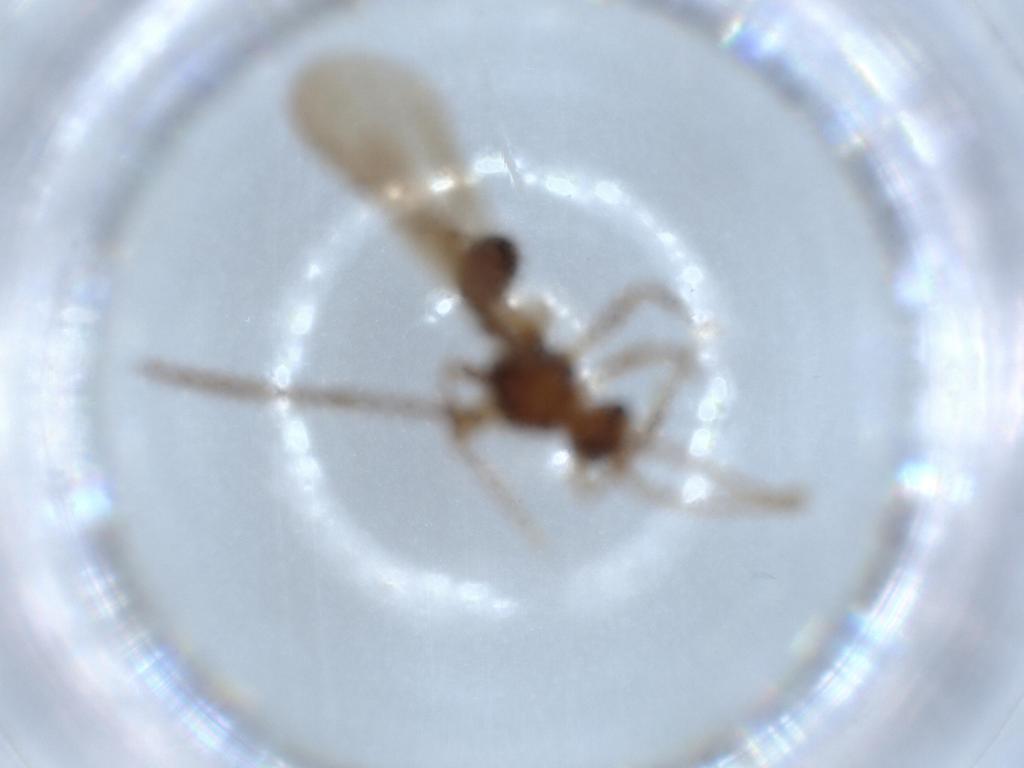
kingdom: Animalia
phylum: Arthropoda
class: Insecta
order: Hymenoptera
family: Formicidae
